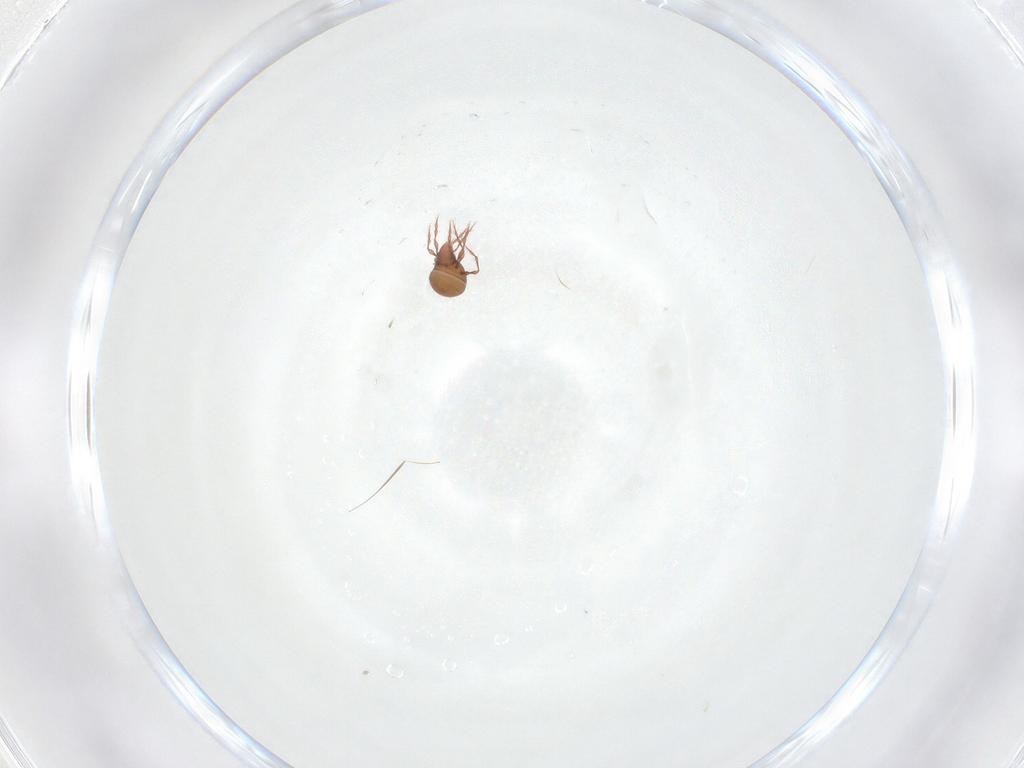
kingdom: Animalia
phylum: Arthropoda
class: Arachnida
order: Sarcoptiformes
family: Oppiidae
